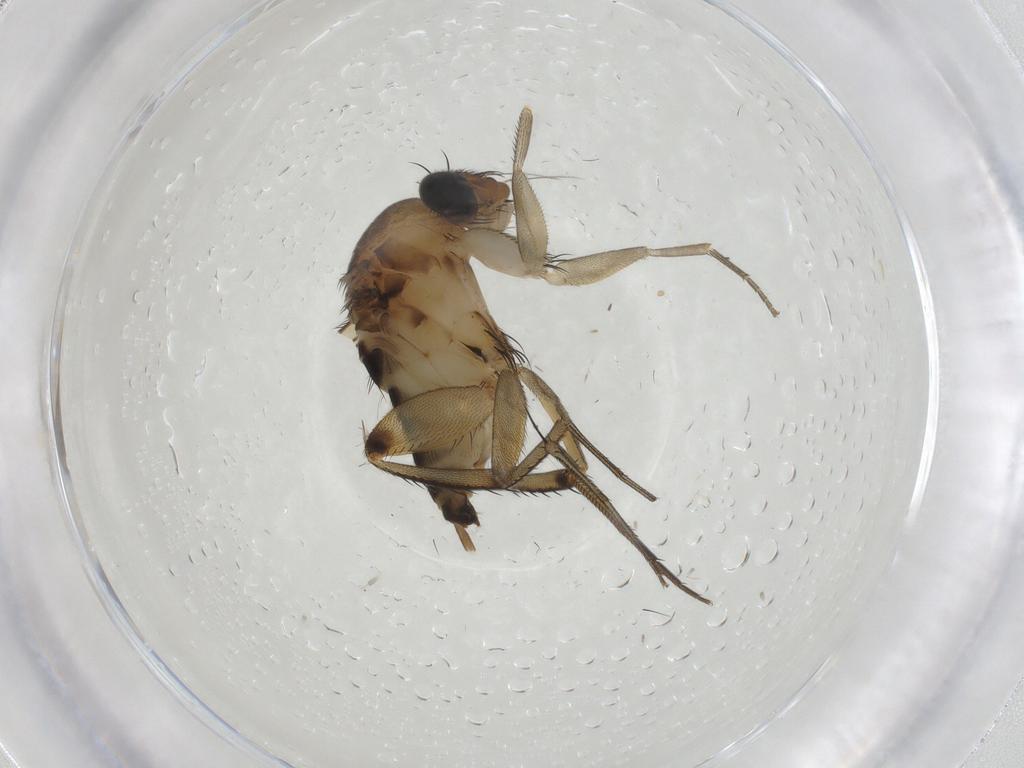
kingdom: Animalia
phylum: Arthropoda
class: Insecta
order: Diptera
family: Phoridae
